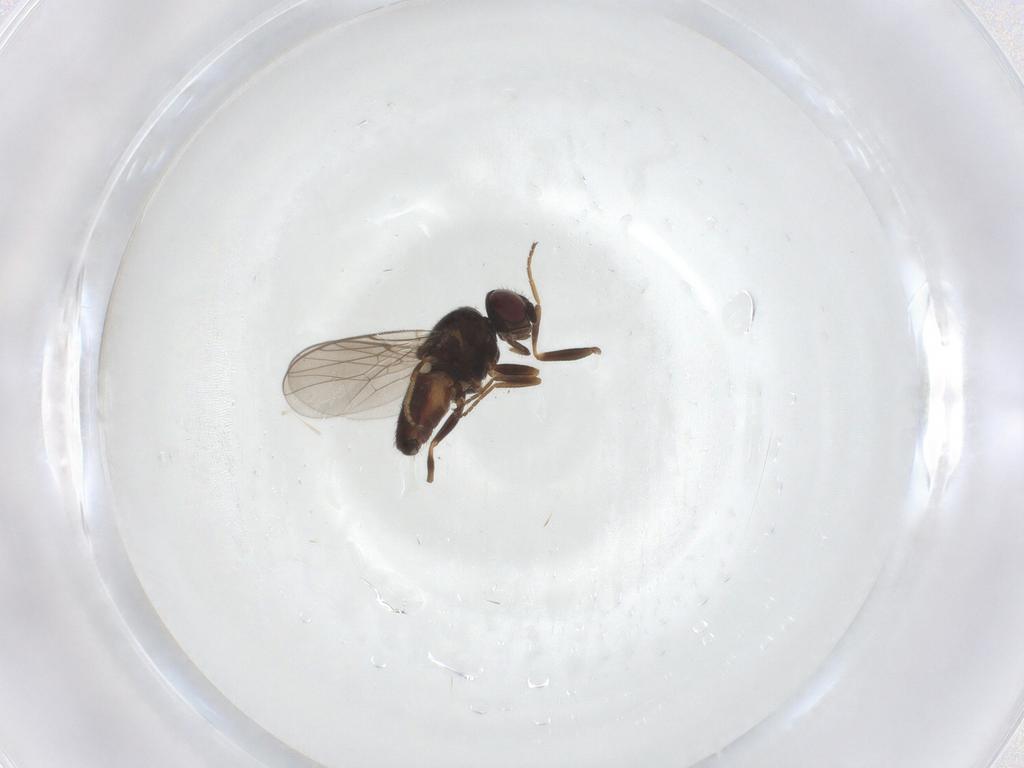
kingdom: Animalia
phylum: Arthropoda
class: Insecta
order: Diptera
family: Chloropidae
